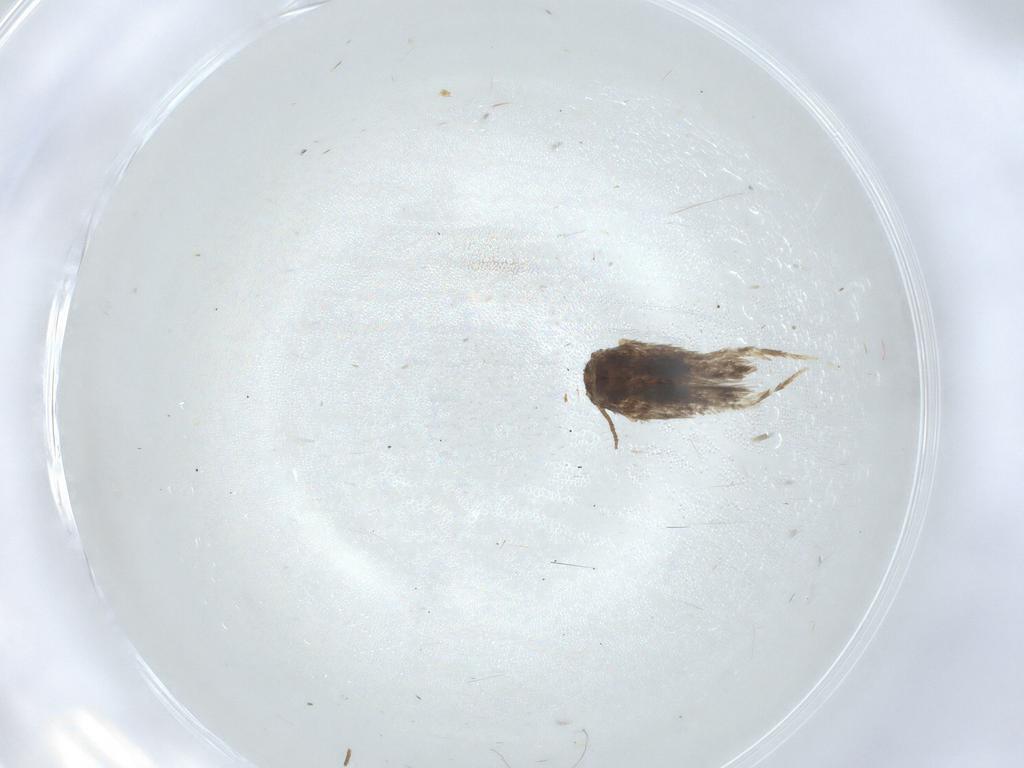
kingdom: Animalia
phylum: Arthropoda
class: Insecta
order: Lepidoptera
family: Nepticulidae
